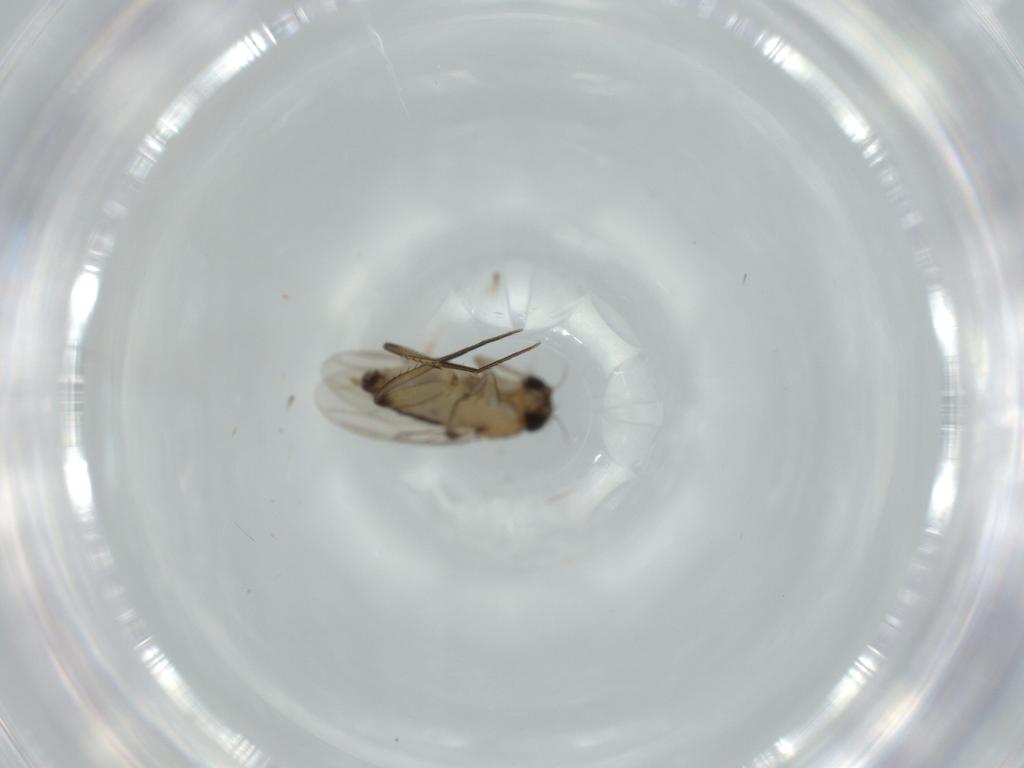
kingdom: Animalia
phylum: Arthropoda
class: Insecta
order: Diptera
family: Phoridae
